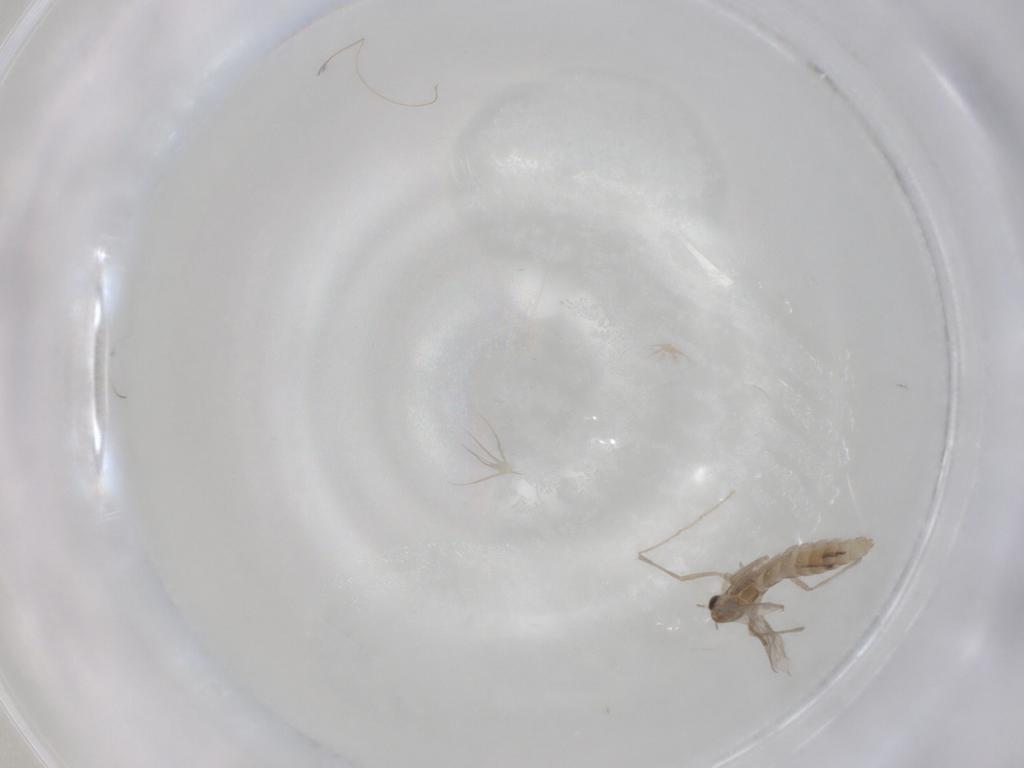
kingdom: Animalia
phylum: Arthropoda
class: Insecta
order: Diptera
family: Chironomidae
